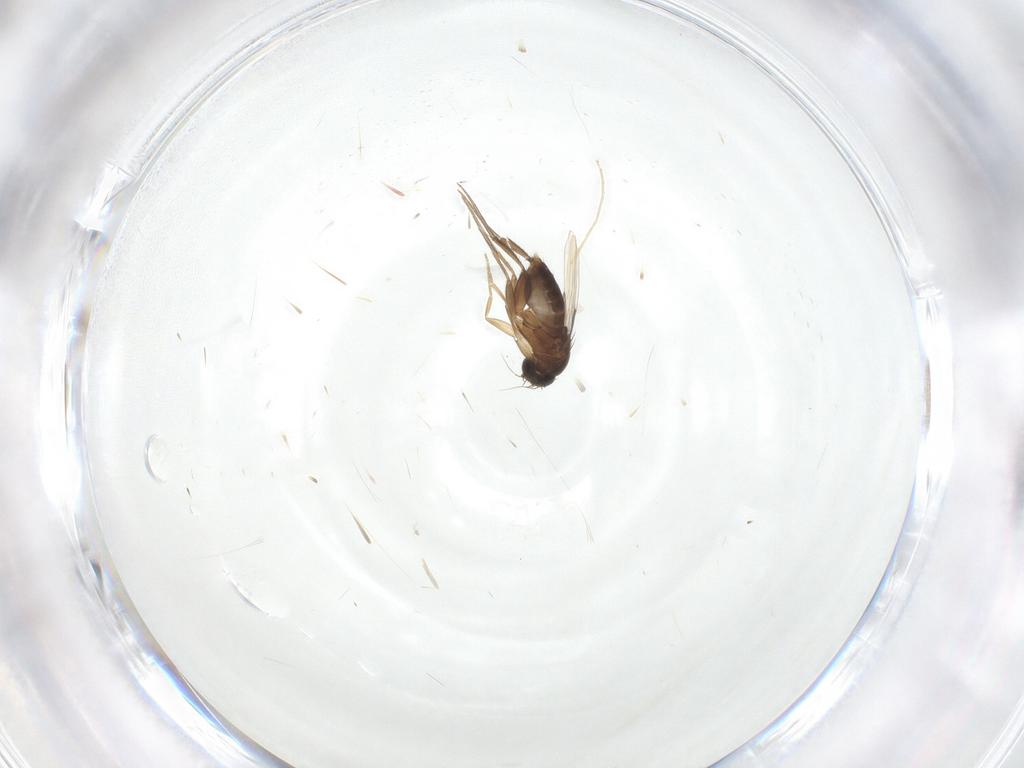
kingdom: Animalia
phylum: Arthropoda
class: Insecta
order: Diptera
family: Phoridae
